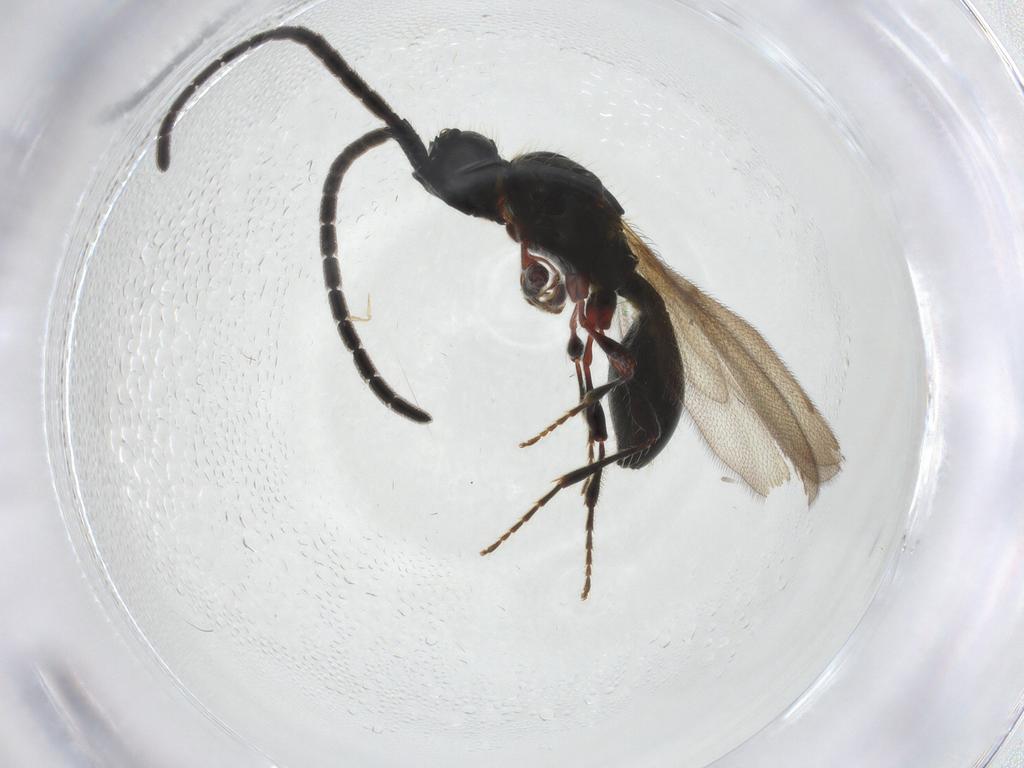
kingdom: Animalia
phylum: Arthropoda
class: Insecta
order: Hymenoptera
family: Diapriidae
